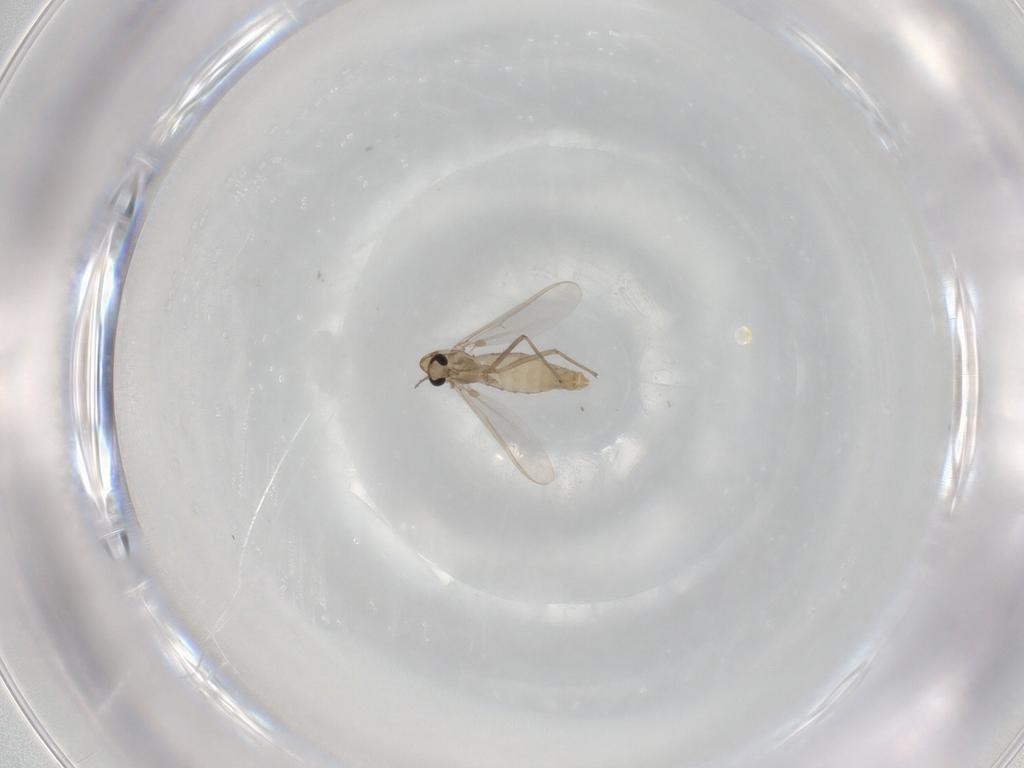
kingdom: Animalia
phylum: Arthropoda
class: Insecta
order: Diptera
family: Chironomidae
